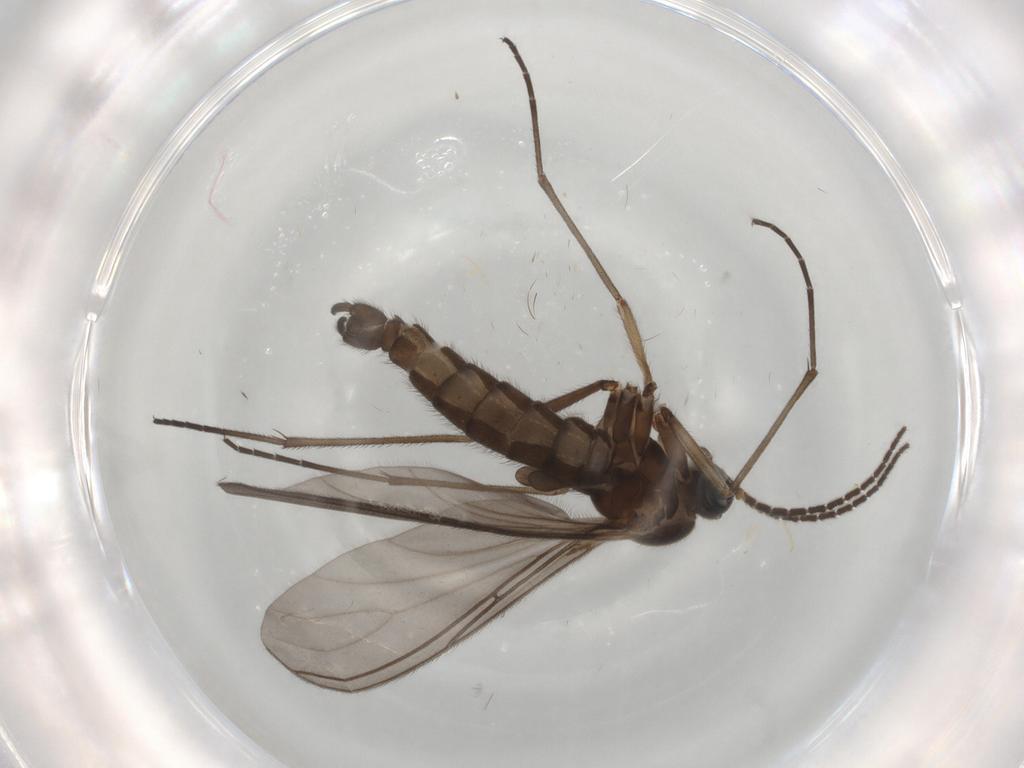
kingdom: Animalia
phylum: Arthropoda
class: Insecta
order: Diptera
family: Sciaridae
